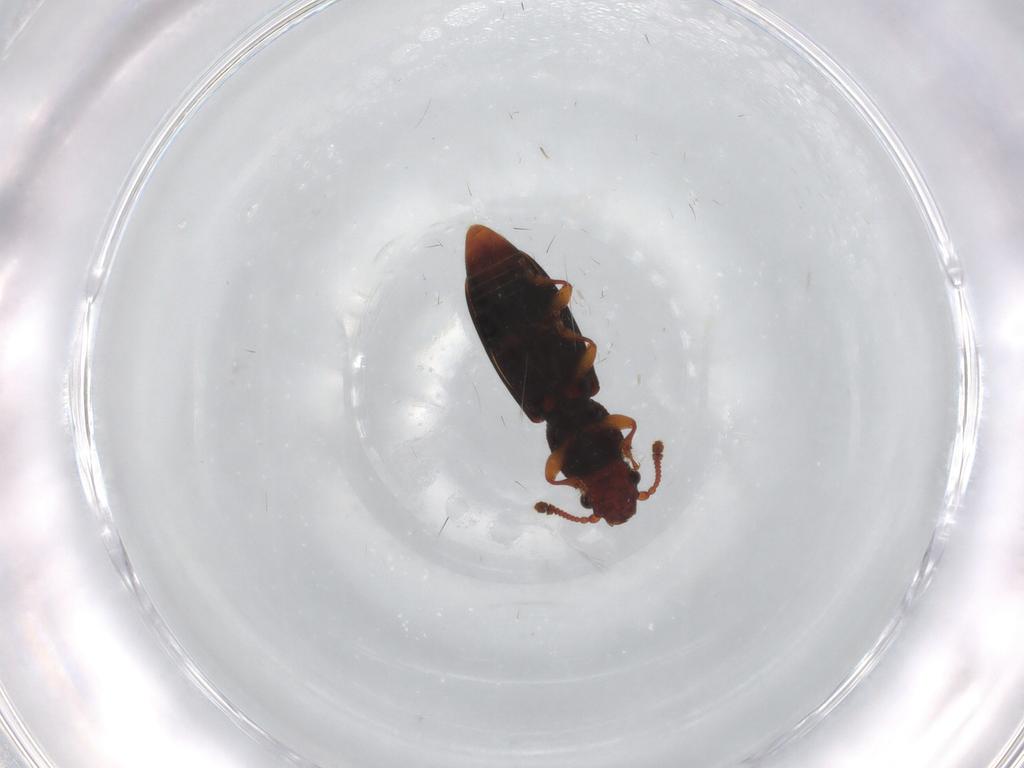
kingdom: Animalia
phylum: Arthropoda
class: Insecta
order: Coleoptera
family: Monotomidae
